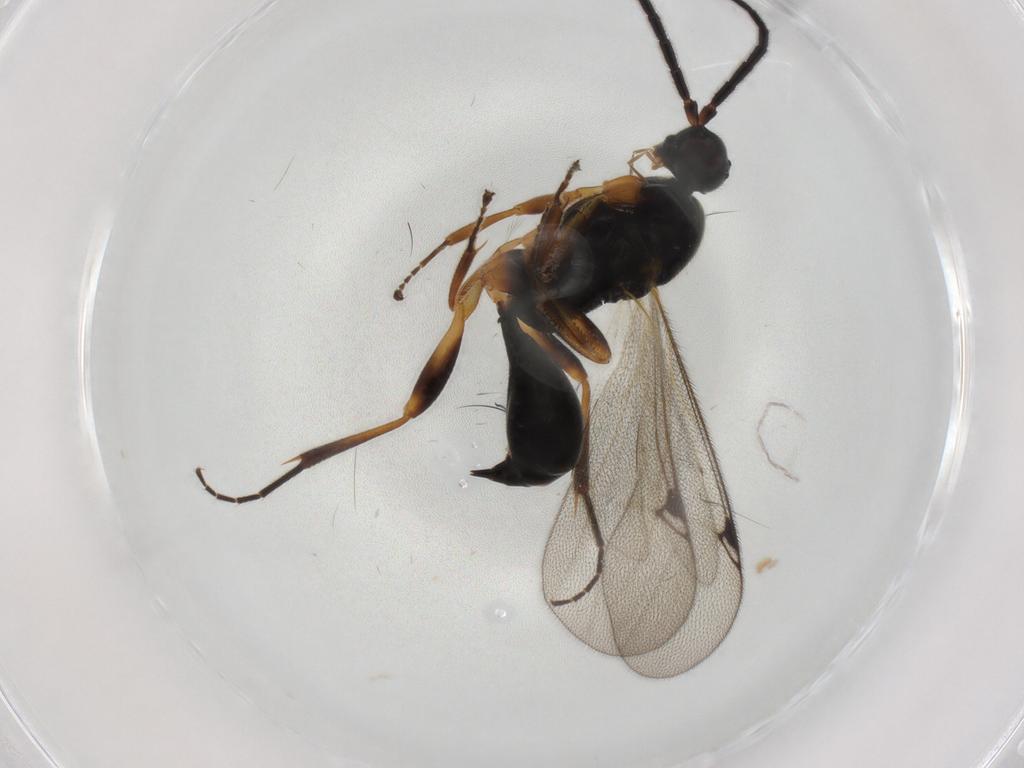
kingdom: Animalia
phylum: Arthropoda
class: Insecta
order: Hymenoptera
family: Proctotrupidae
